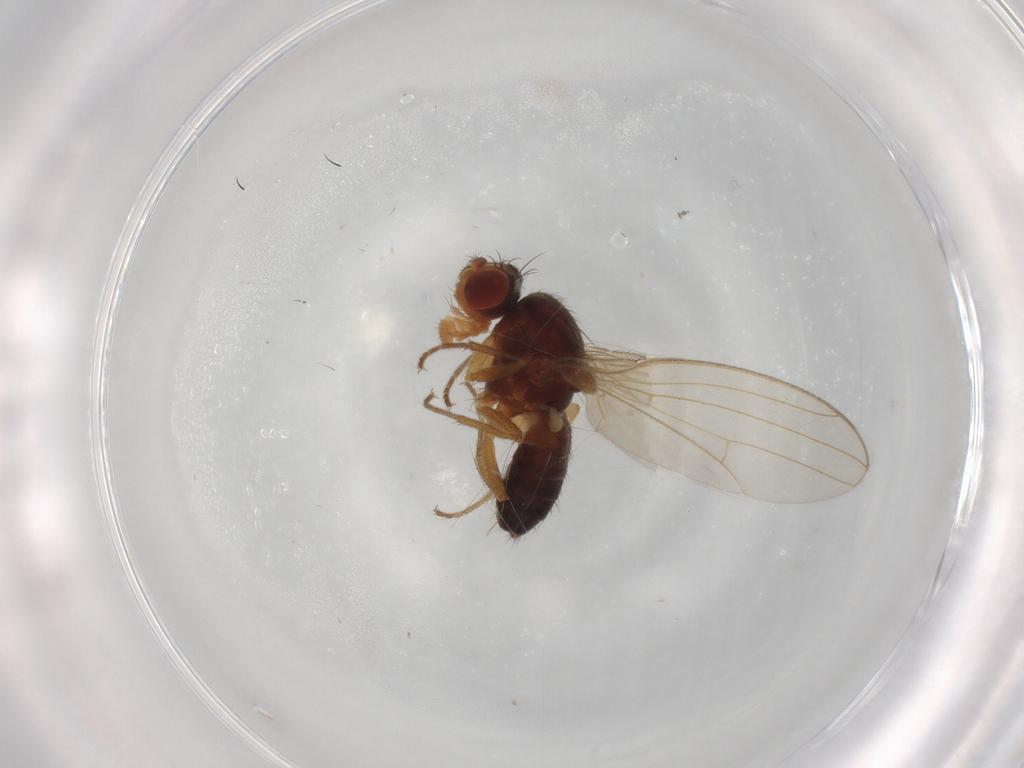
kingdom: Animalia
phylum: Arthropoda
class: Insecta
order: Diptera
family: Drosophilidae
